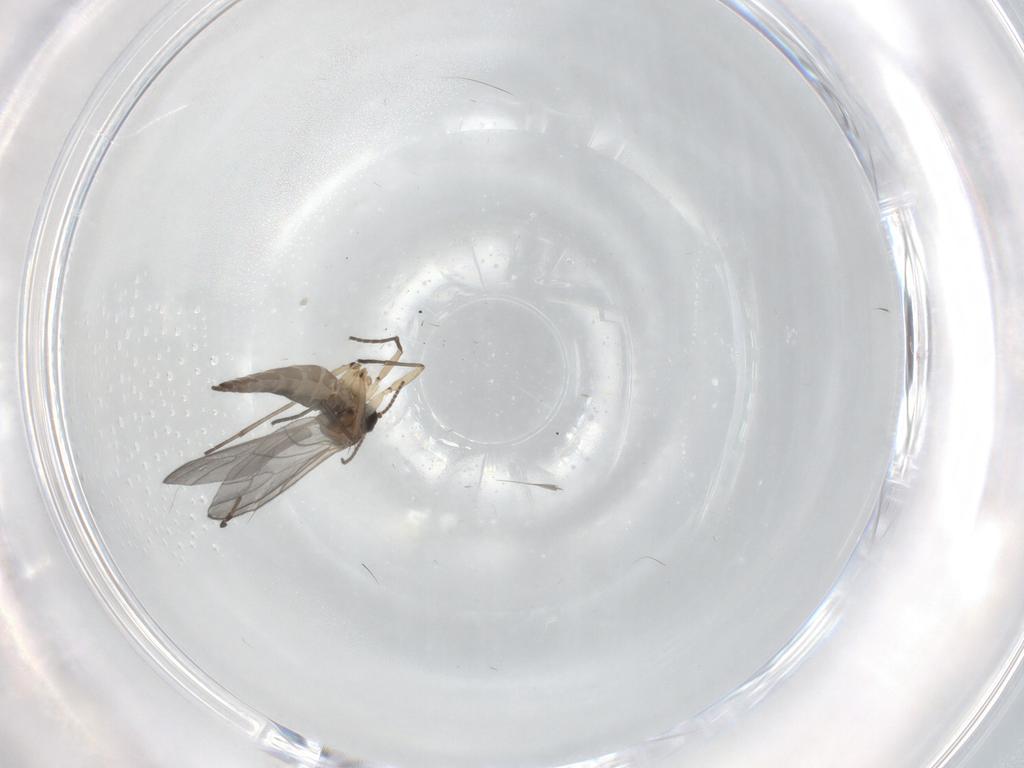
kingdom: Animalia
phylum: Arthropoda
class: Insecta
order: Diptera
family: Sciaridae
